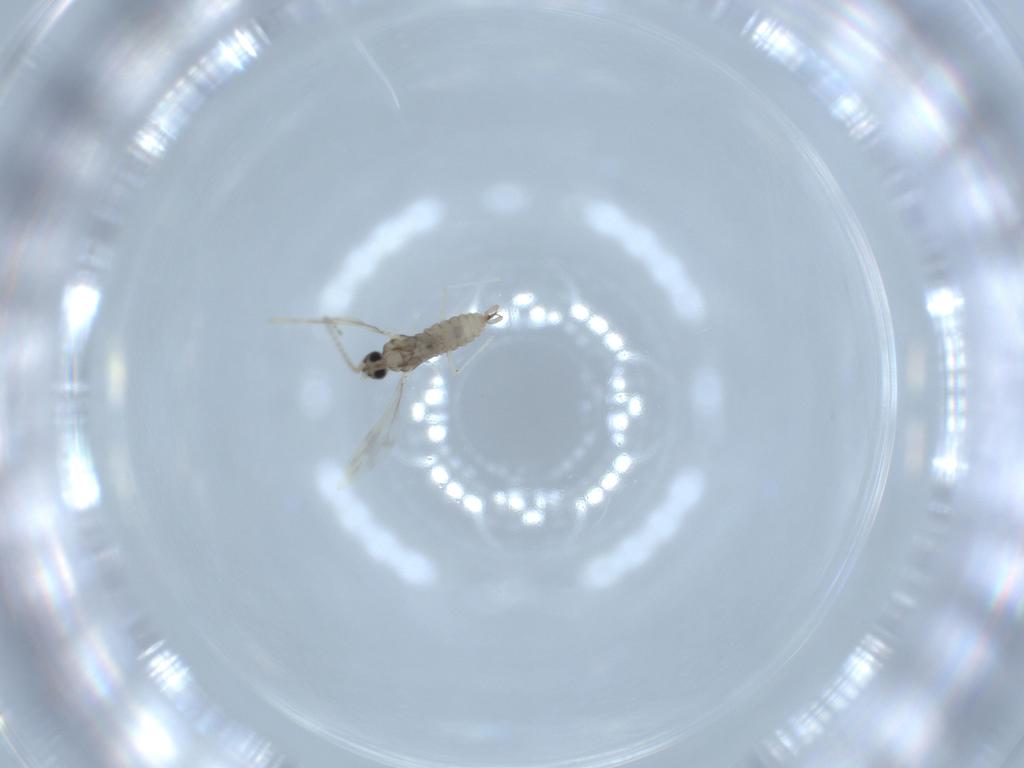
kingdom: Animalia
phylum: Arthropoda
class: Insecta
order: Diptera
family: Cecidomyiidae
